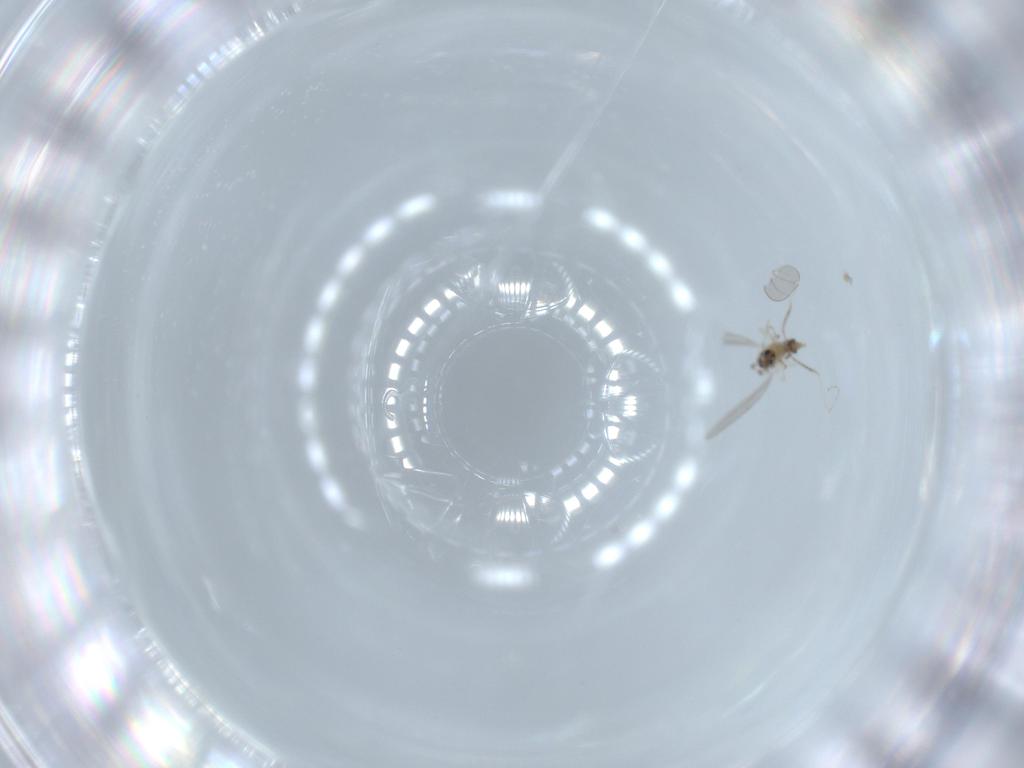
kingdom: Animalia
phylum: Arthropoda
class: Insecta
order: Diptera
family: Cecidomyiidae
